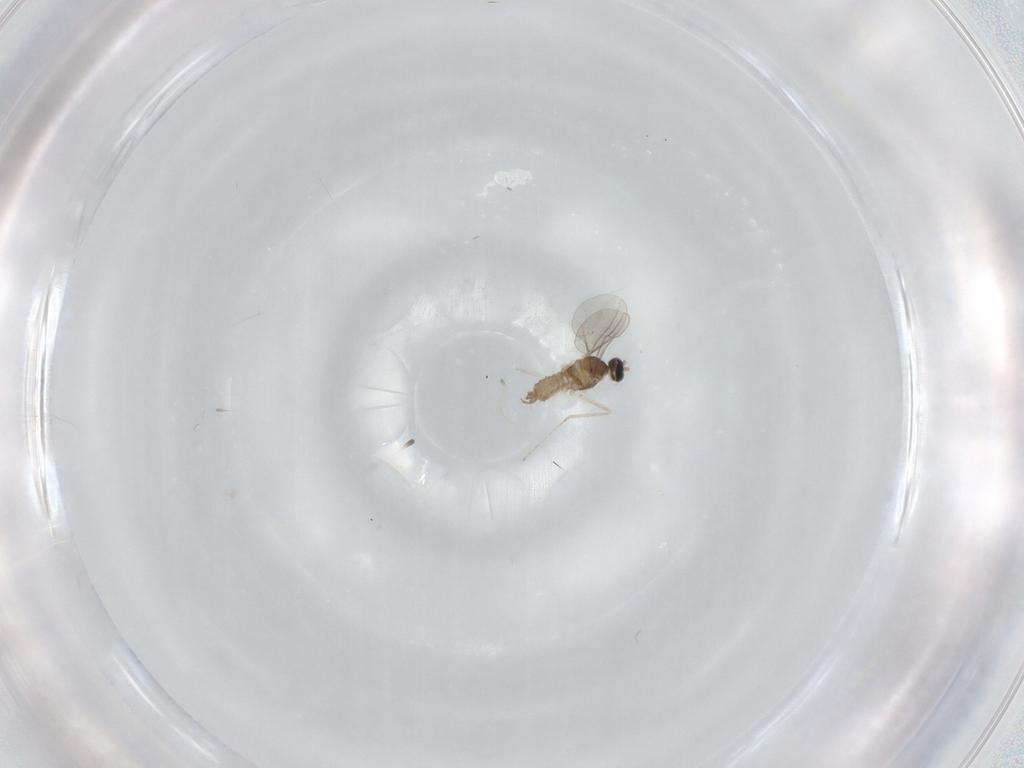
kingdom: Animalia
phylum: Arthropoda
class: Insecta
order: Diptera
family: Cecidomyiidae
